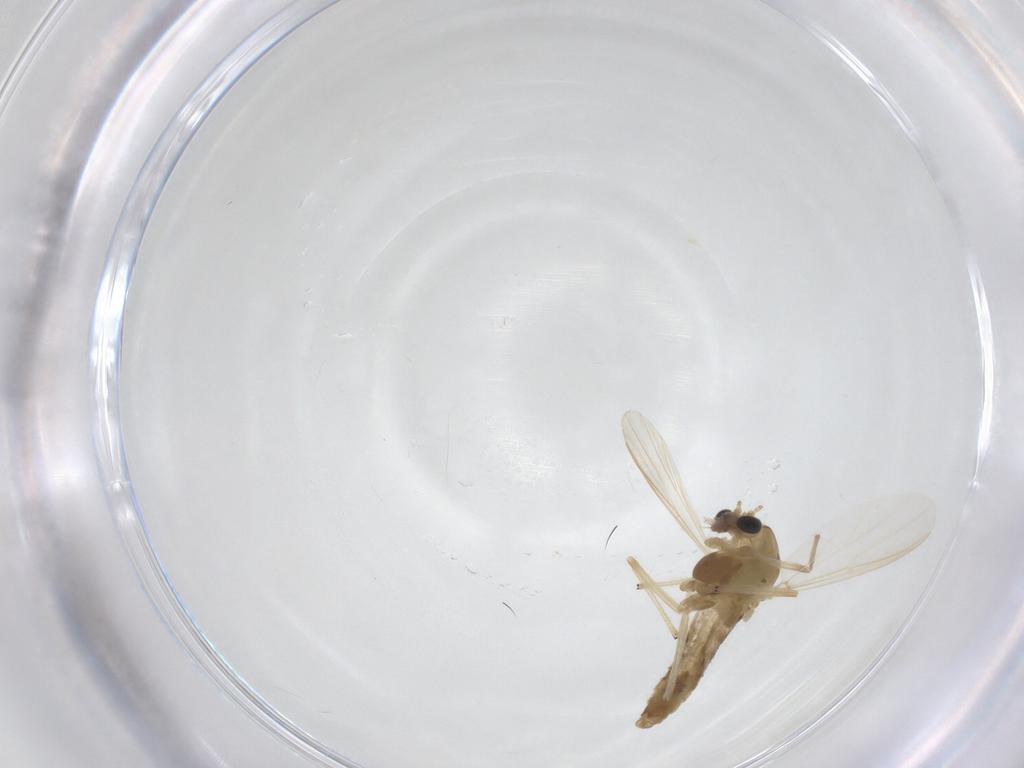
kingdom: Animalia
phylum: Arthropoda
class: Insecta
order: Diptera
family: Chironomidae
